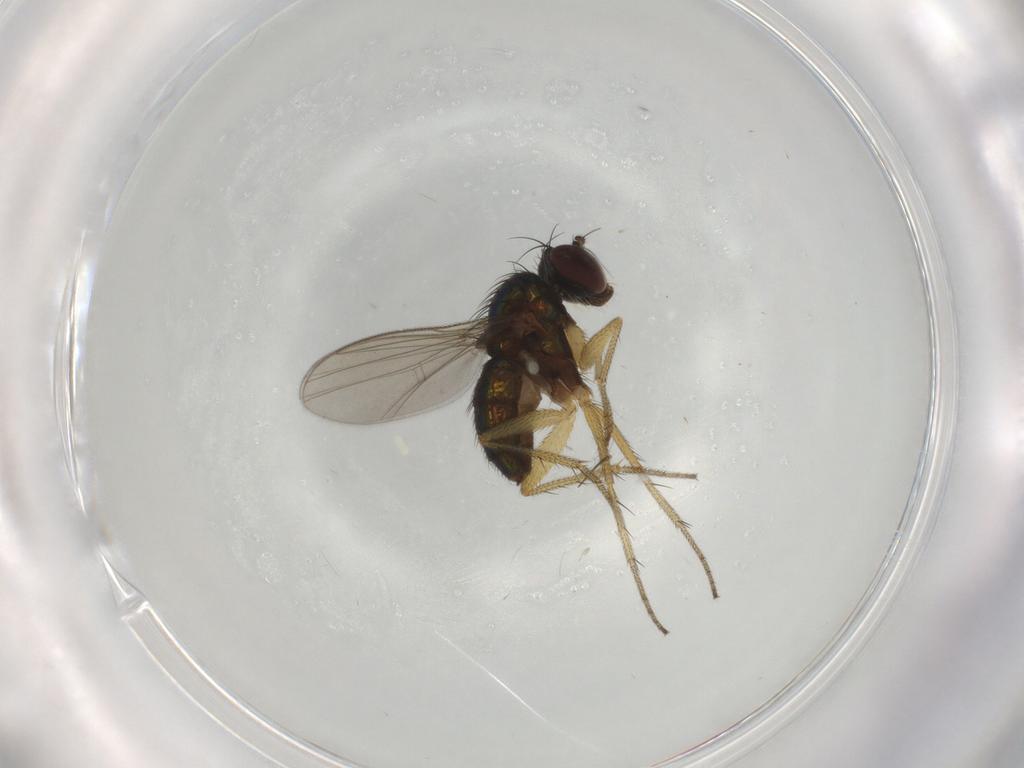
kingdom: Animalia
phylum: Arthropoda
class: Insecta
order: Diptera
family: Muscidae
